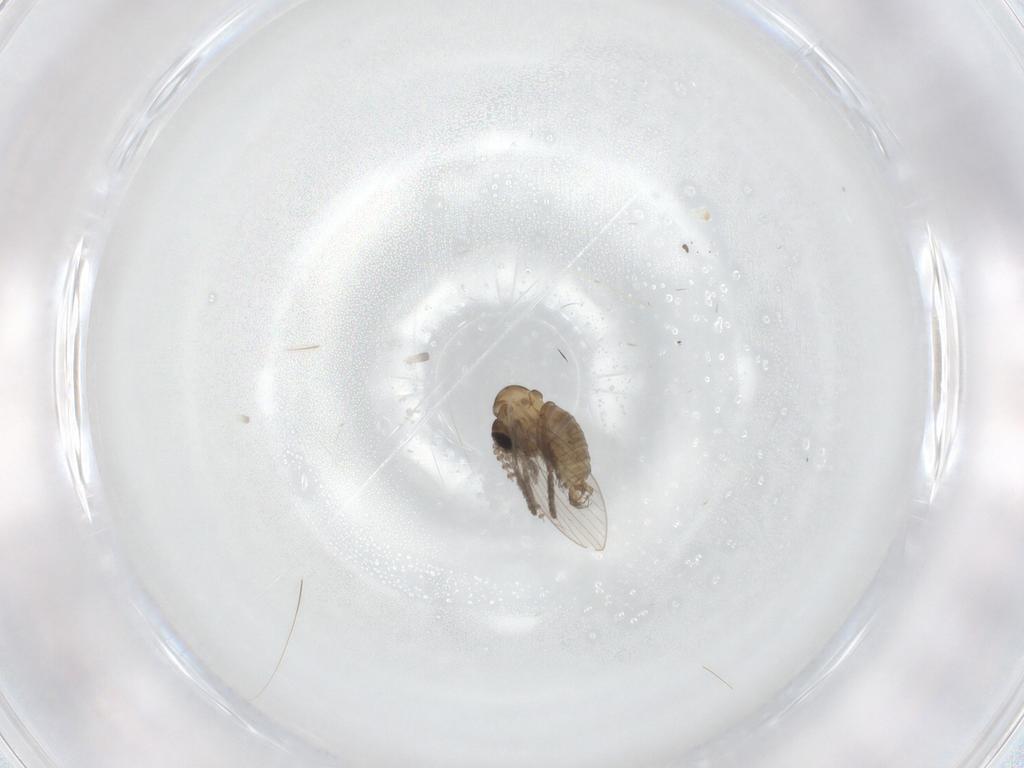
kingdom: Animalia
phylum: Arthropoda
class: Insecta
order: Diptera
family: Psychodidae
